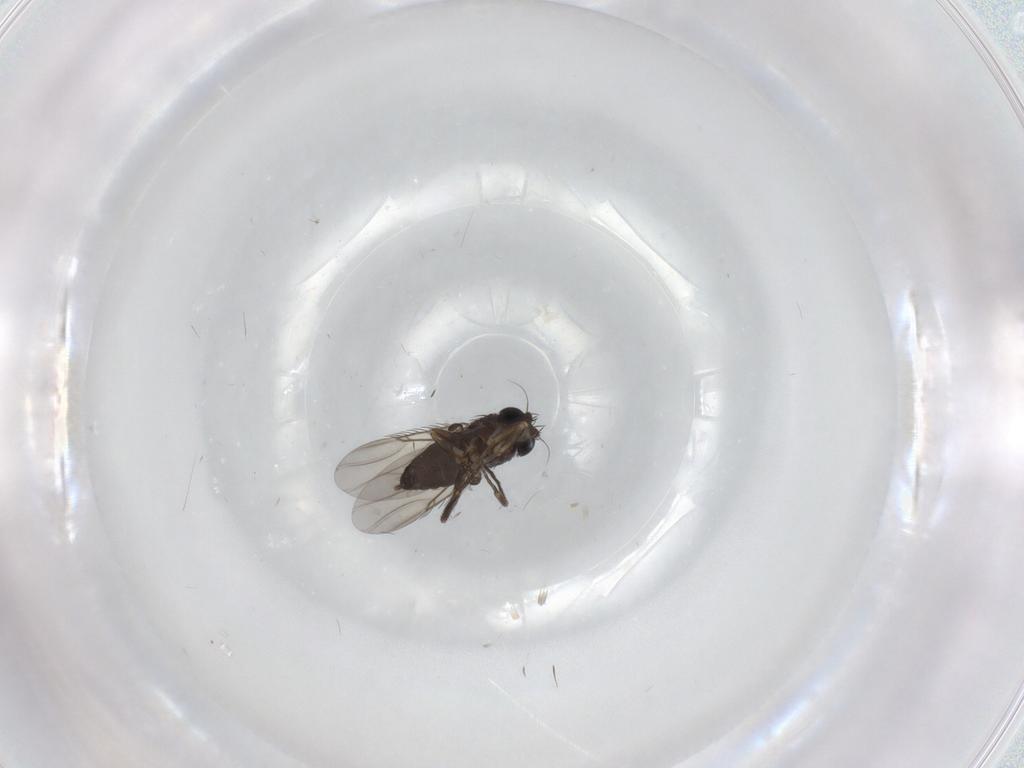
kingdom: Animalia
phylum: Arthropoda
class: Insecta
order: Diptera
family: Phoridae
